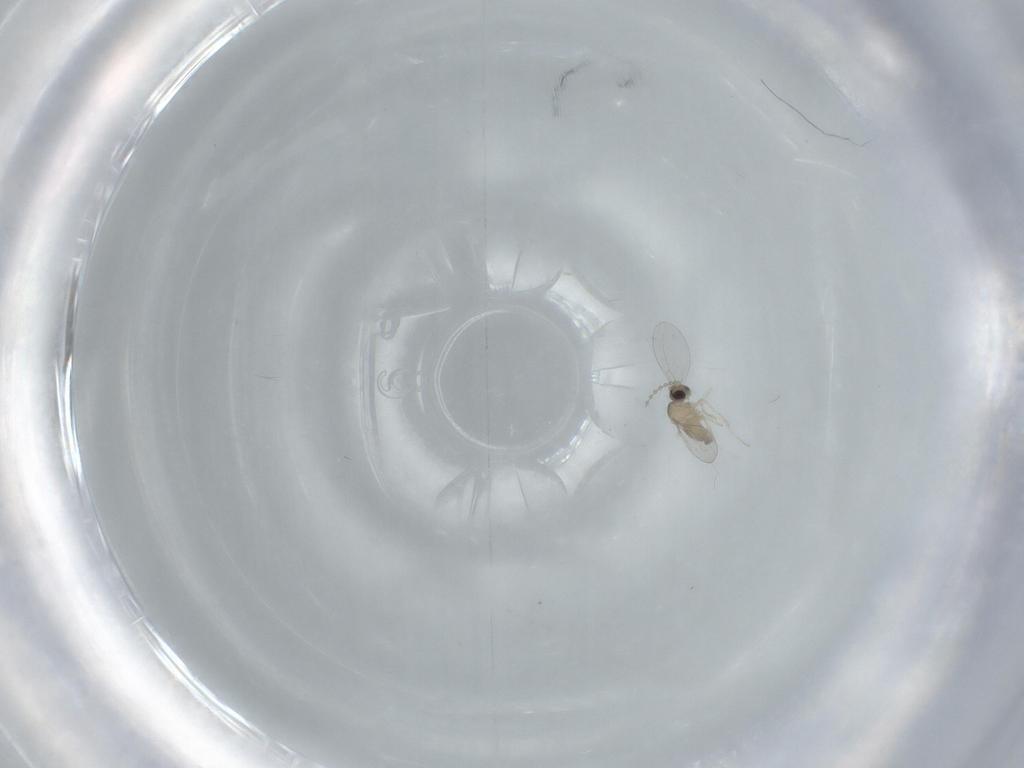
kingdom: Animalia
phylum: Arthropoda
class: Insecta
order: Diptera
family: Cecidomyiidae
